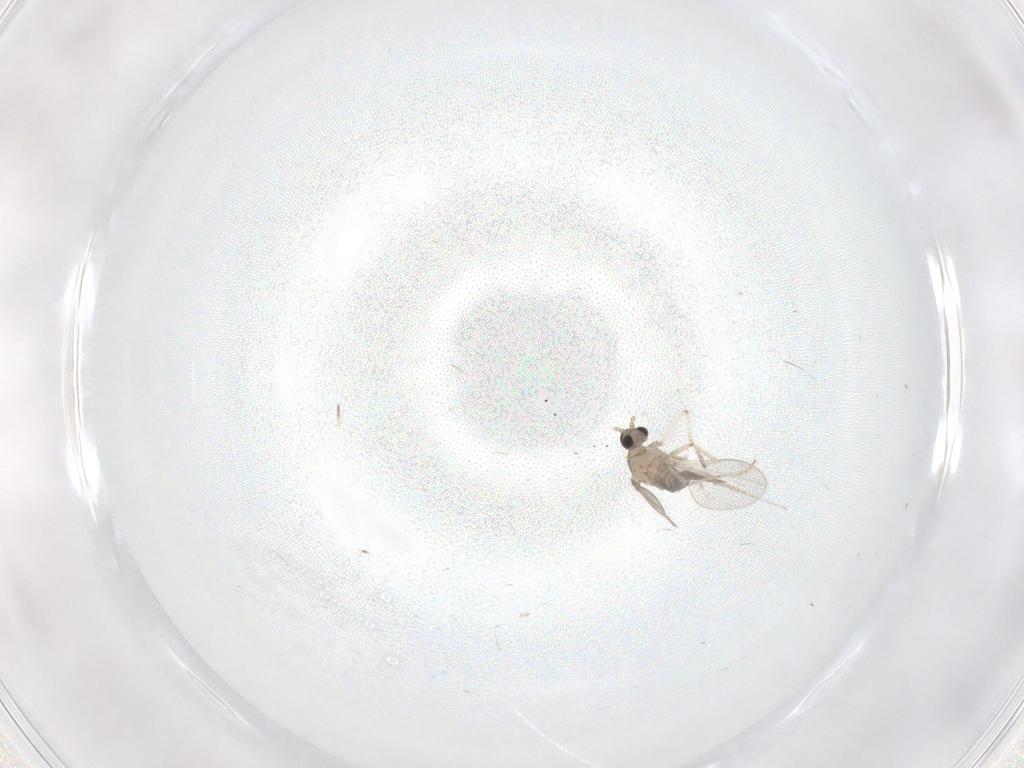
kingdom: Animalia
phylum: Arthropoda
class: Insecta
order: Diptera
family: Cecidomyiidae
